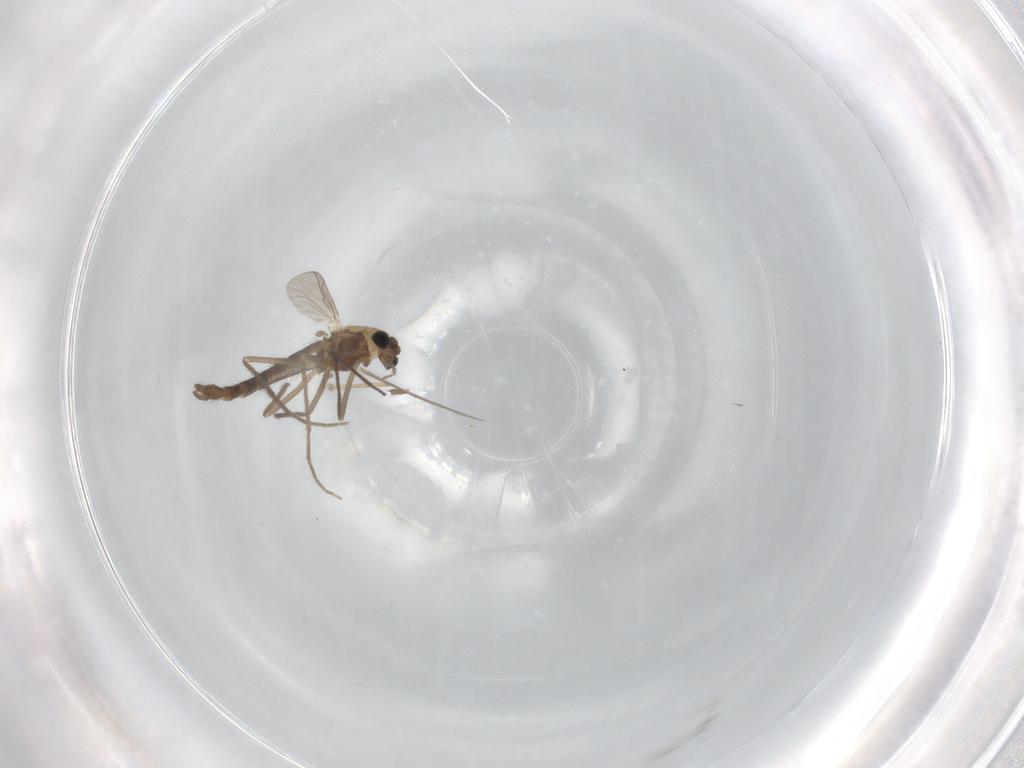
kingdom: Animalia
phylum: Arthropoda
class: Insecta
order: Diptera
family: Chironomidae
